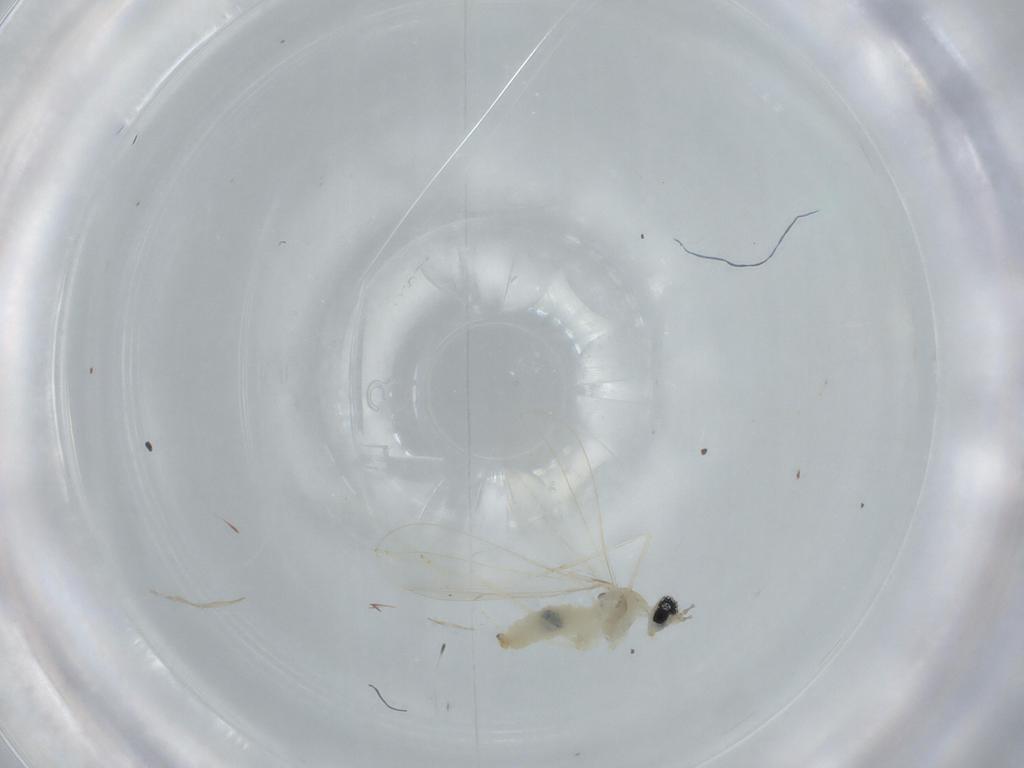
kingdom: Animalia
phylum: Arthropoda
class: Insecta
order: Diptera
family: Cecidomyiidae
